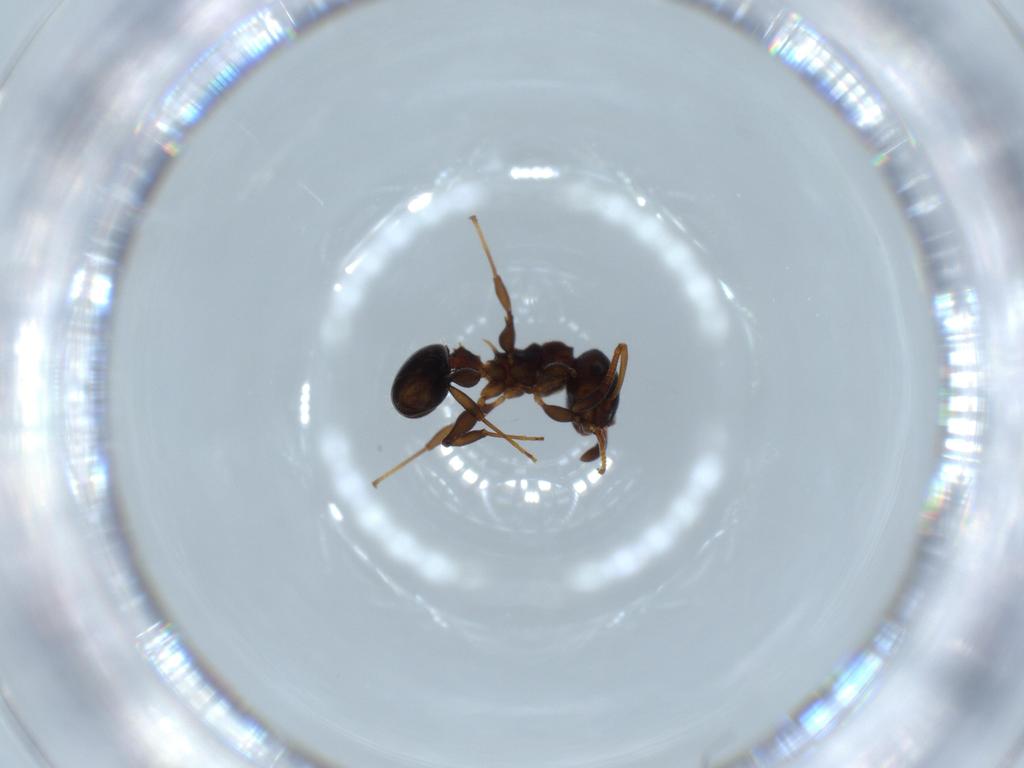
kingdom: Animalia
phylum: Arthropoda
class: Insecta
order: Hymenoptera
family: Formicidae
